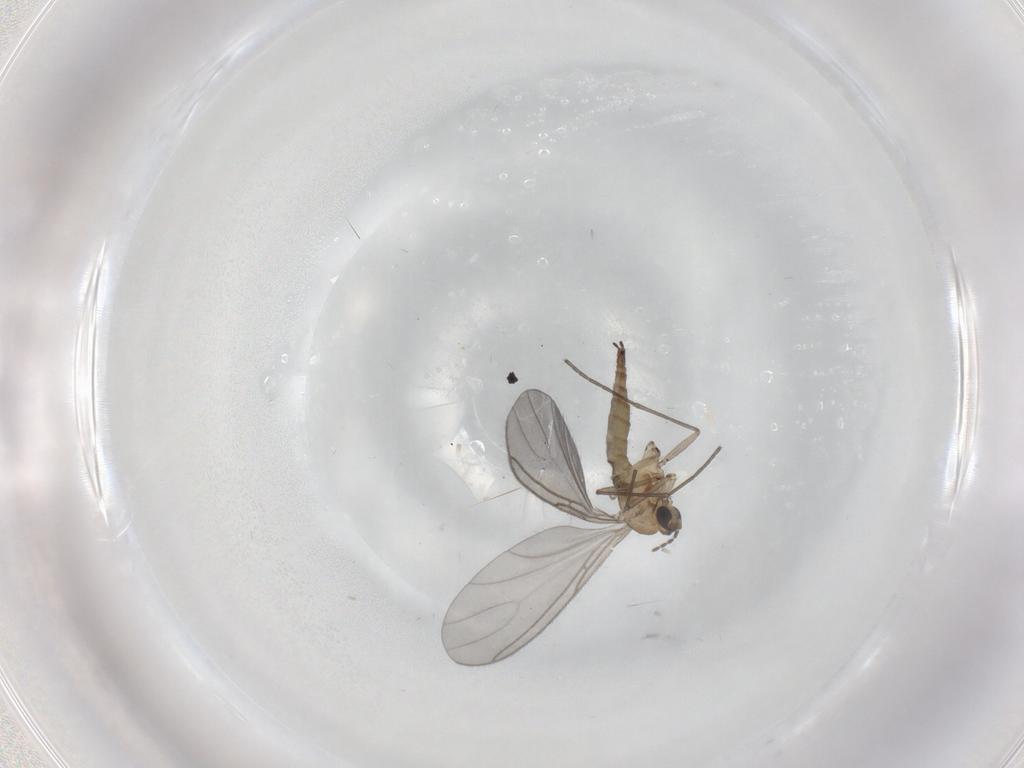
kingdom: Animalia
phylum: Arthropoda
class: Insecta
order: Diptera
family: Sciaridae
